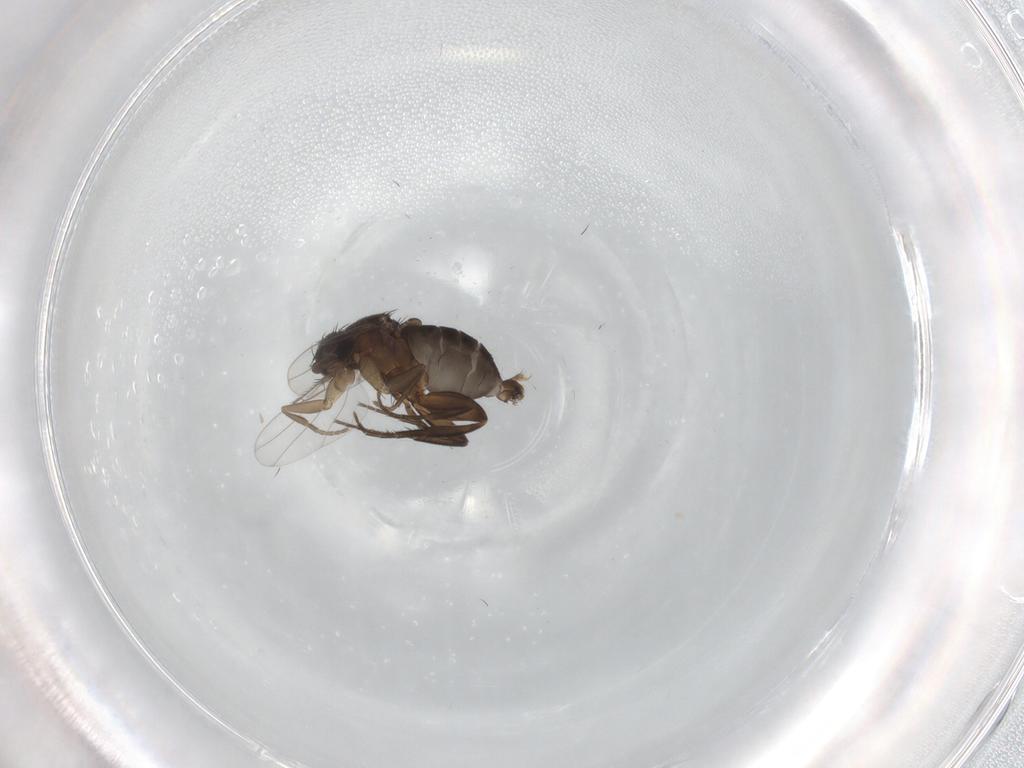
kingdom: Animalia
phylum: Arthropoda
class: Insecta
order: Diptera
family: Phoridae
